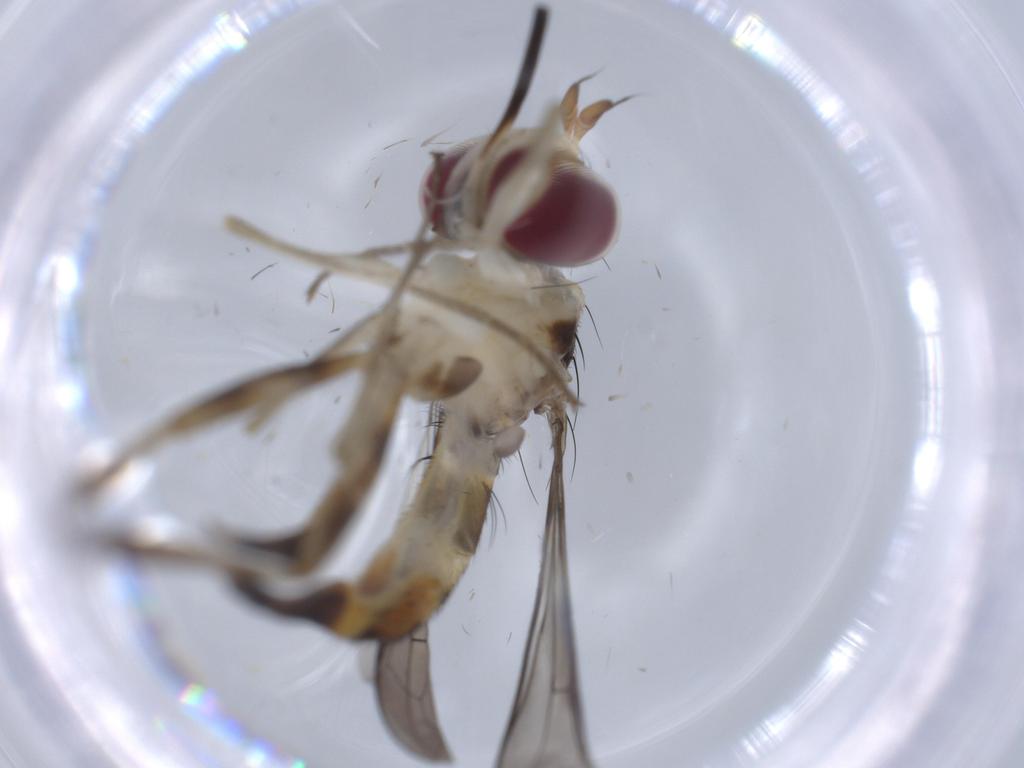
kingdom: Animalia
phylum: Arthropoda
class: Insecta
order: Diptera
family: Cecidomyiidae
